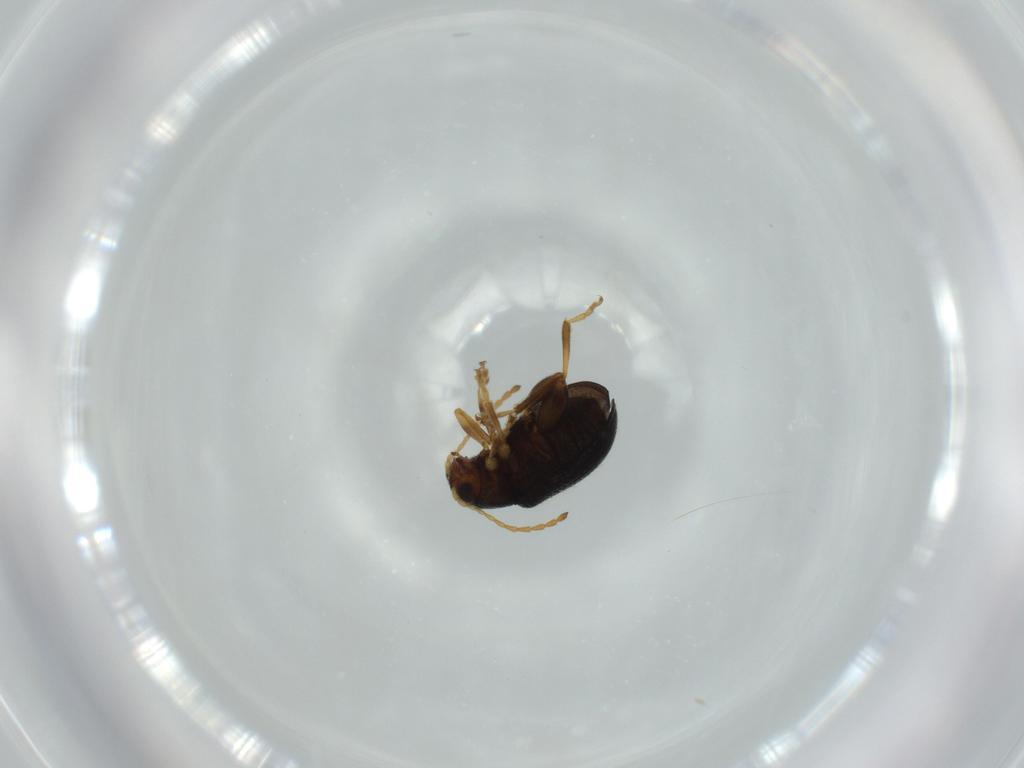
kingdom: Animalia
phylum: Arthropoda
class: Insecta
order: Coleoptera
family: Chrysomelidae
